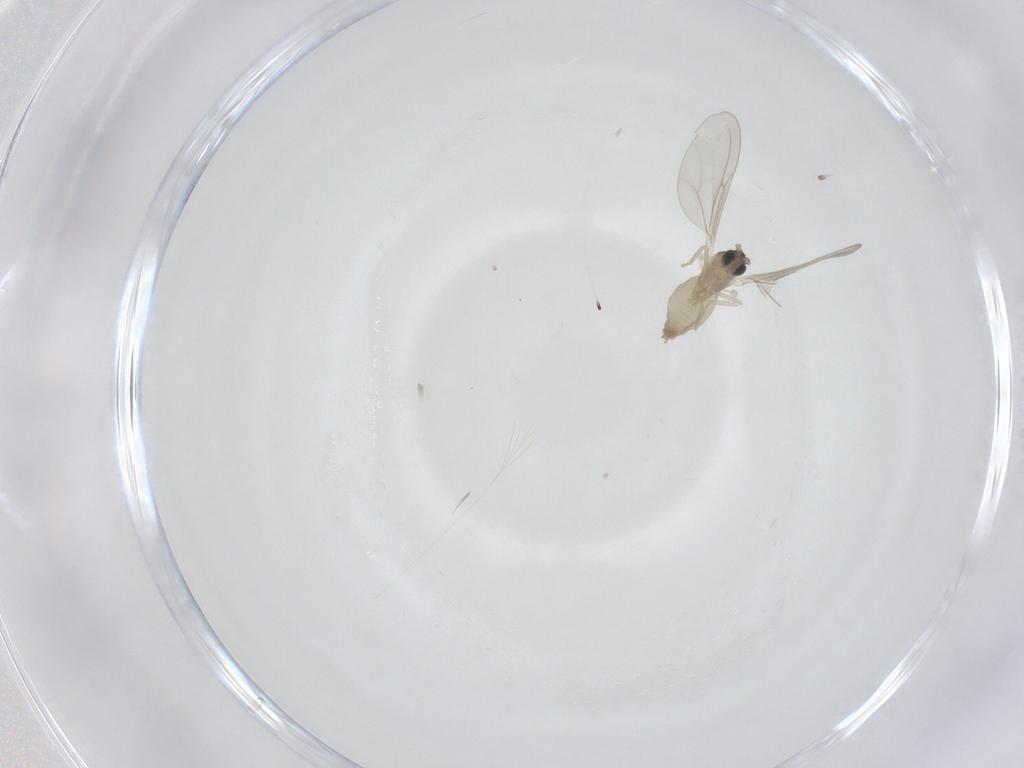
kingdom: Animalia
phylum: Arthropoda
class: Insecta
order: Diptera
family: Cecidomyiidae
